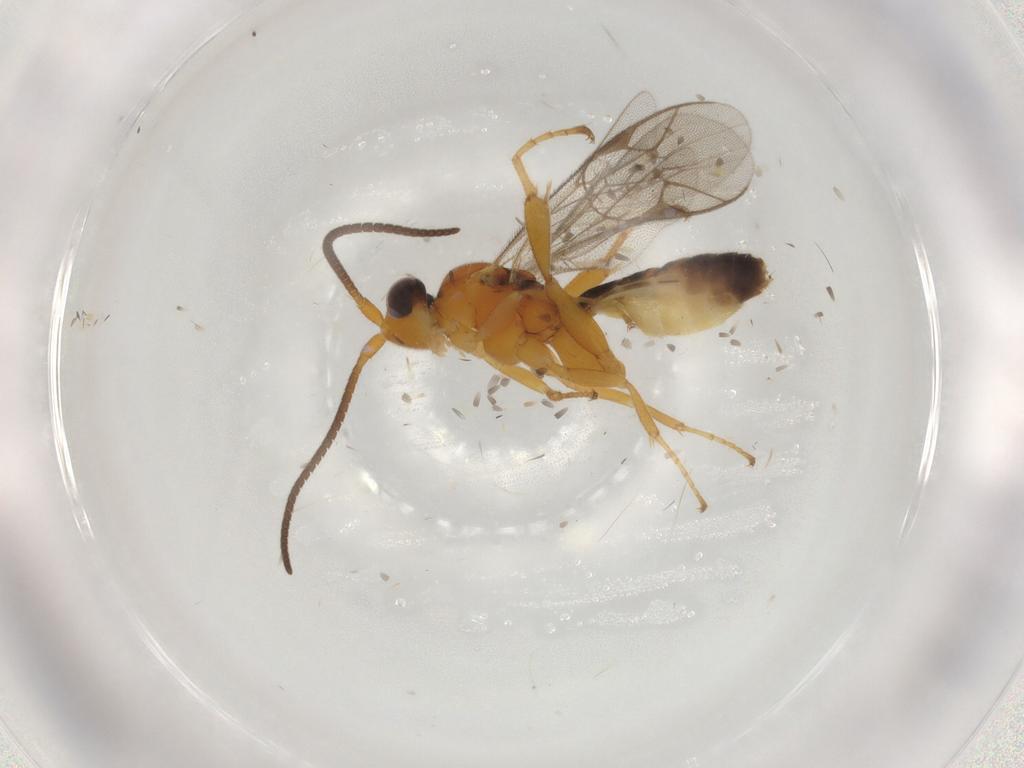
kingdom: Animalia
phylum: Arthropoda
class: Insecta
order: Hymenoptera
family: Ichneumonidae
